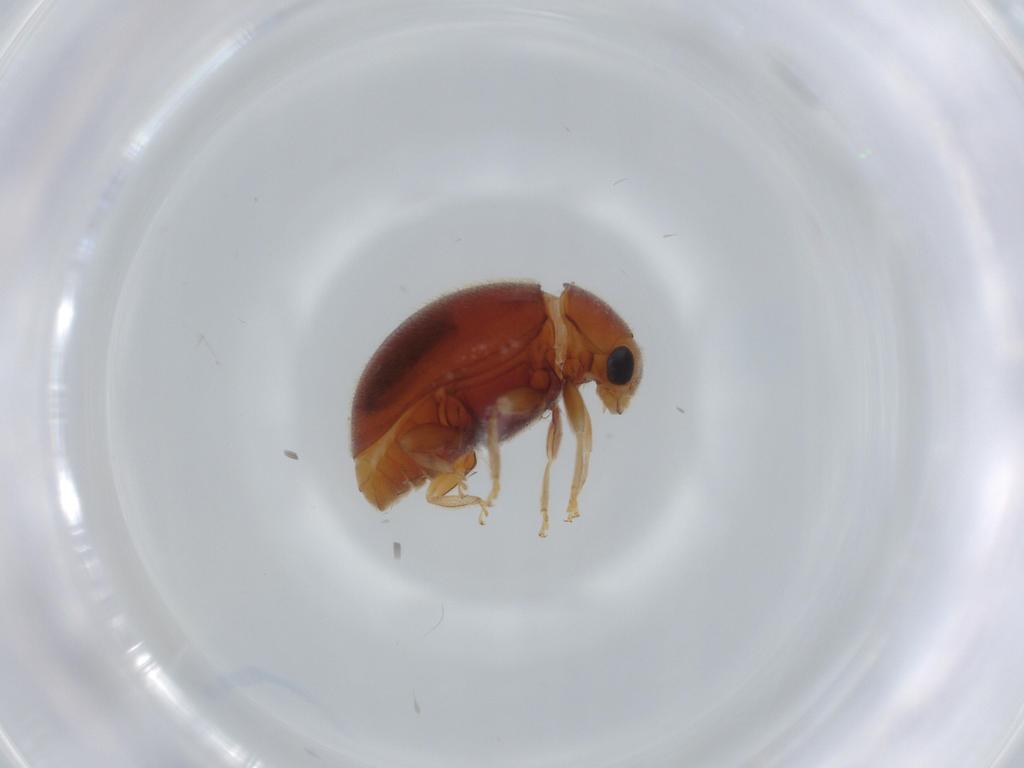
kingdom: Animalia
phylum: Arthropoda
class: Insecta
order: Coleoptera
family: Coccinellidae
